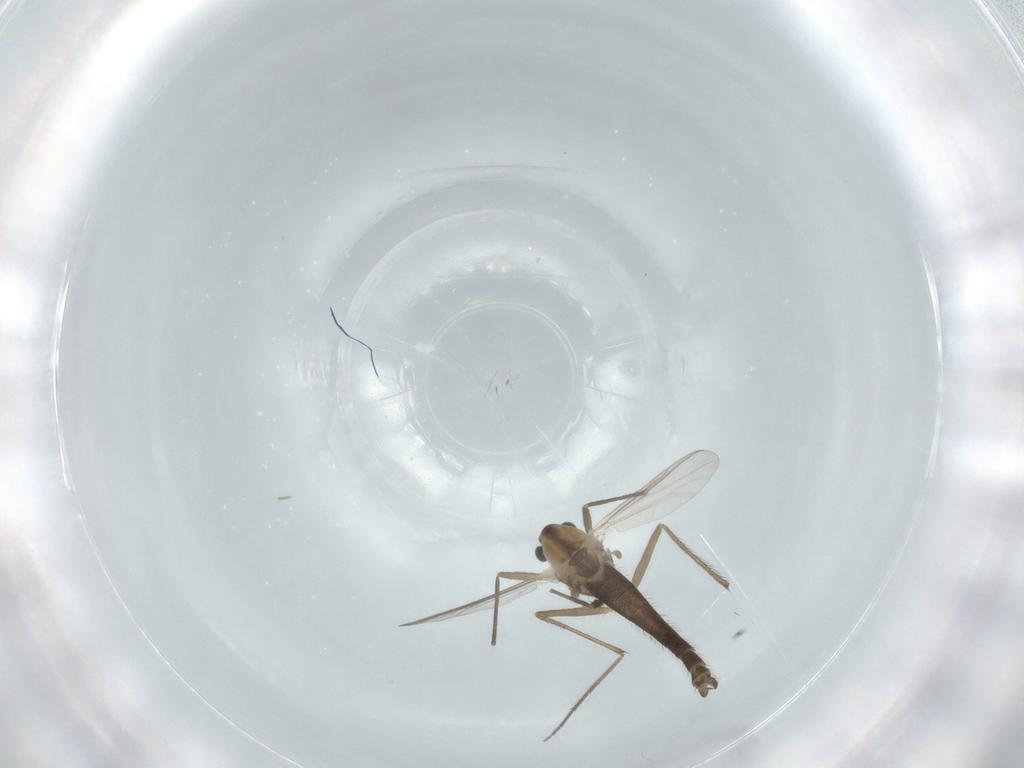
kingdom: Animalia
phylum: Arthropoda
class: Insecta
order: Diptera
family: Chironomidae
